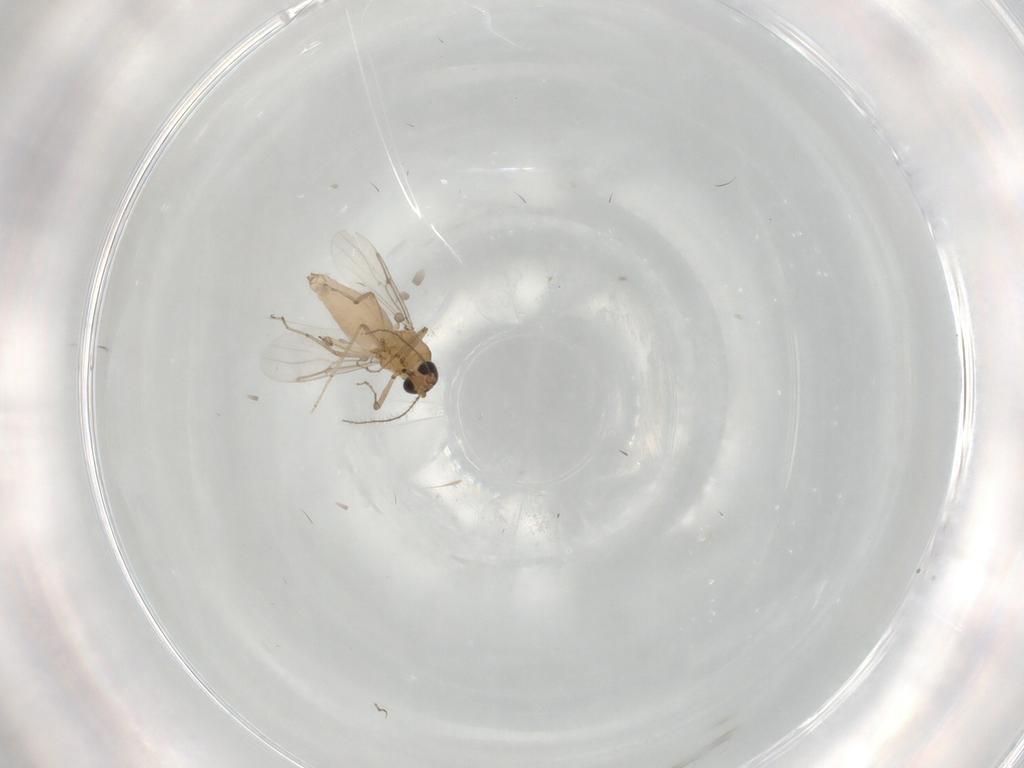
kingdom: Animalia
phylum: Arthropoda
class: Insecta
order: Diptera
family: Ceratopogonidae
